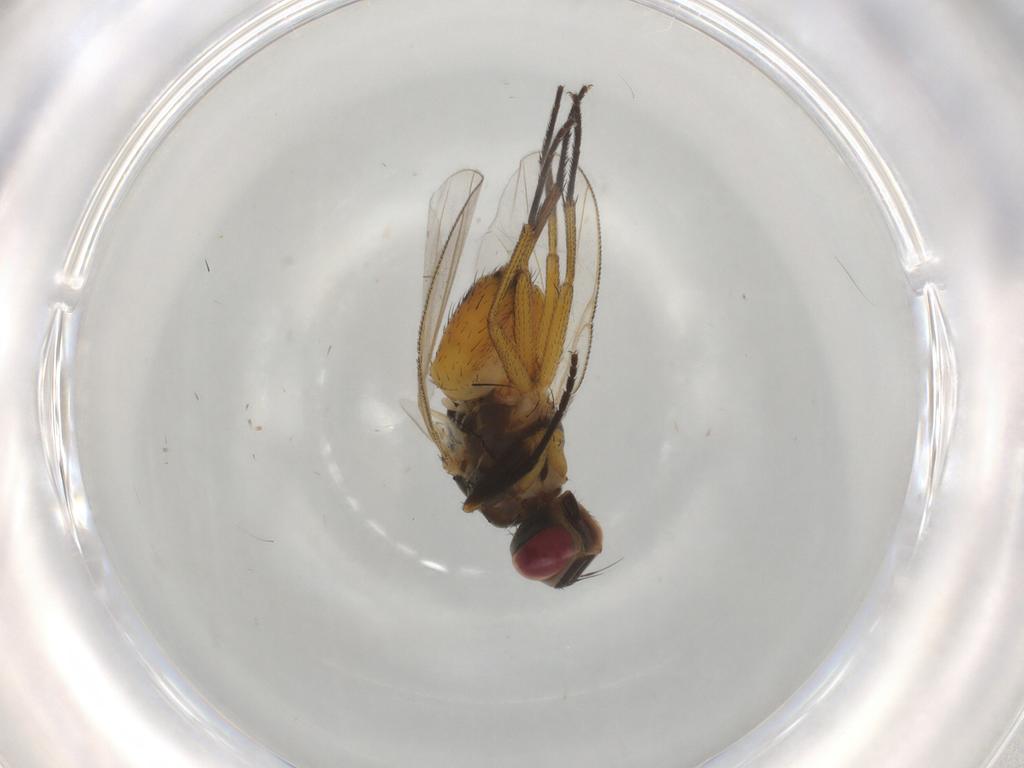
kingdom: Animalia
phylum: Arthropoda
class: Insecta
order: Diptera
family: Muscidae
